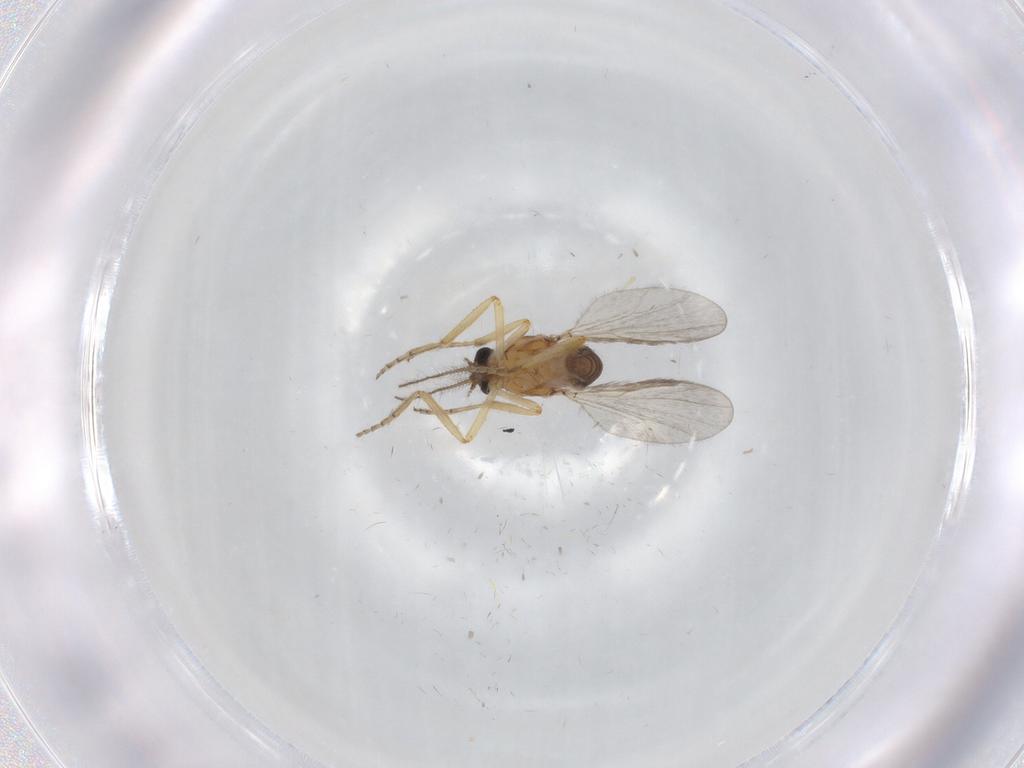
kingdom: Animalia
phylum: Arthropoda
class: Insecta
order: Diptera
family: Ceratopogonidae
